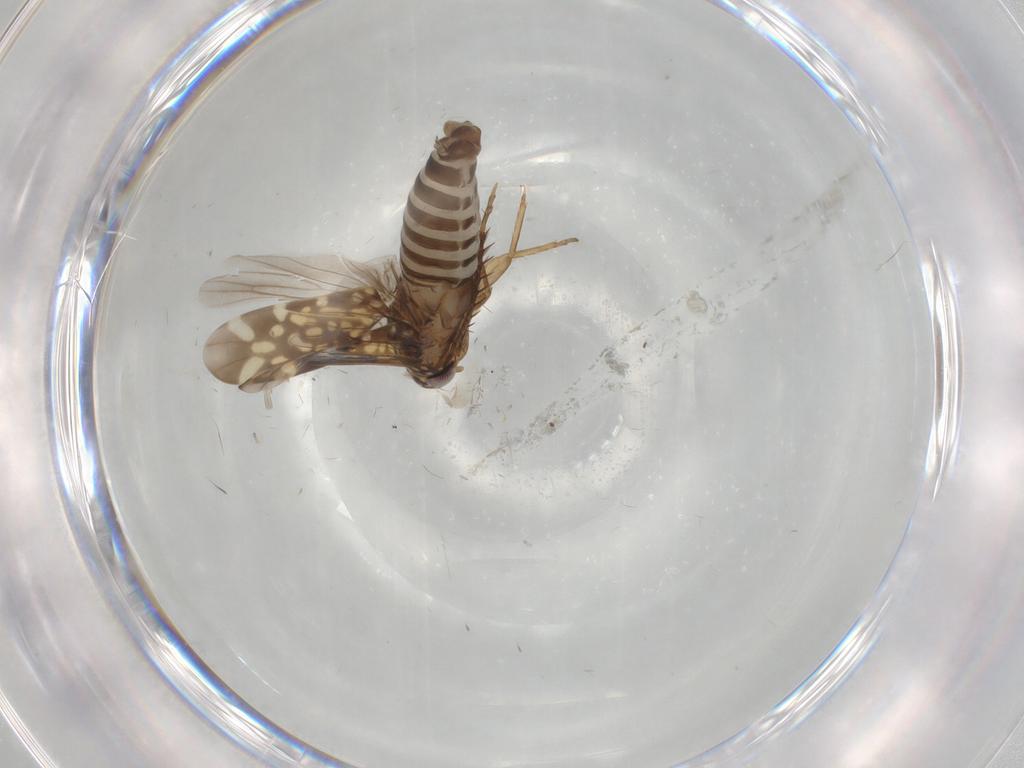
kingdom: Animalia
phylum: Arthropoda
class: Insecta
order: Hemiptera
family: Cicadellidae
